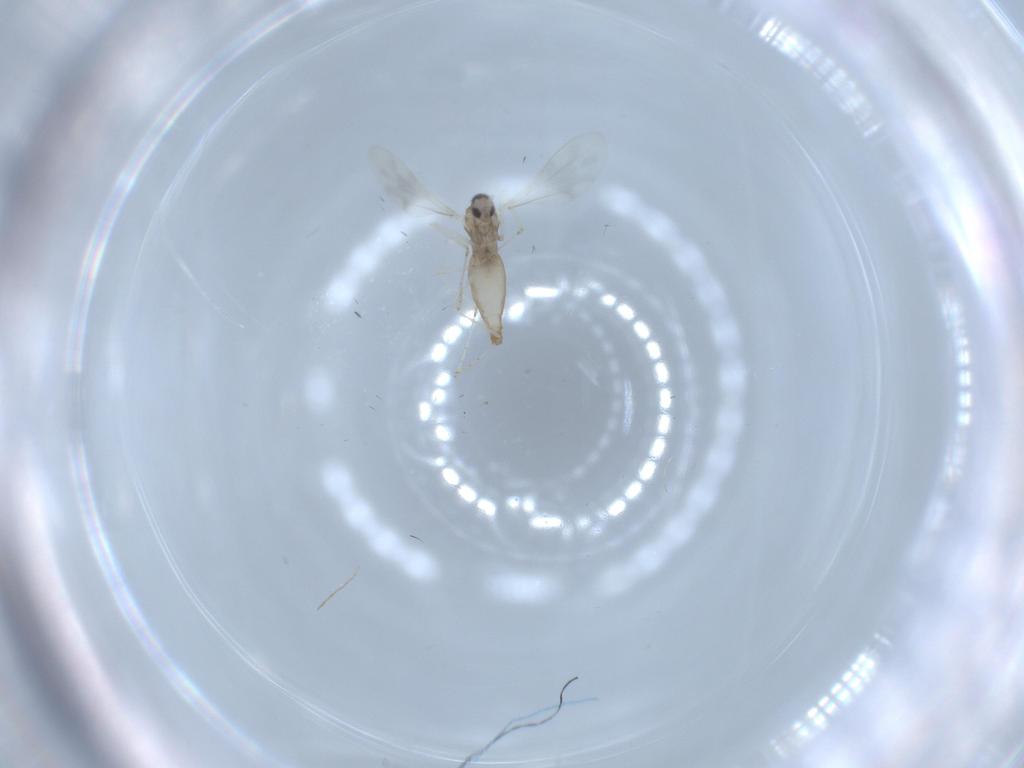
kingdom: Animalia
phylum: Arthropoda
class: Insecta
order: Diptera
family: Cecidomyiidae
